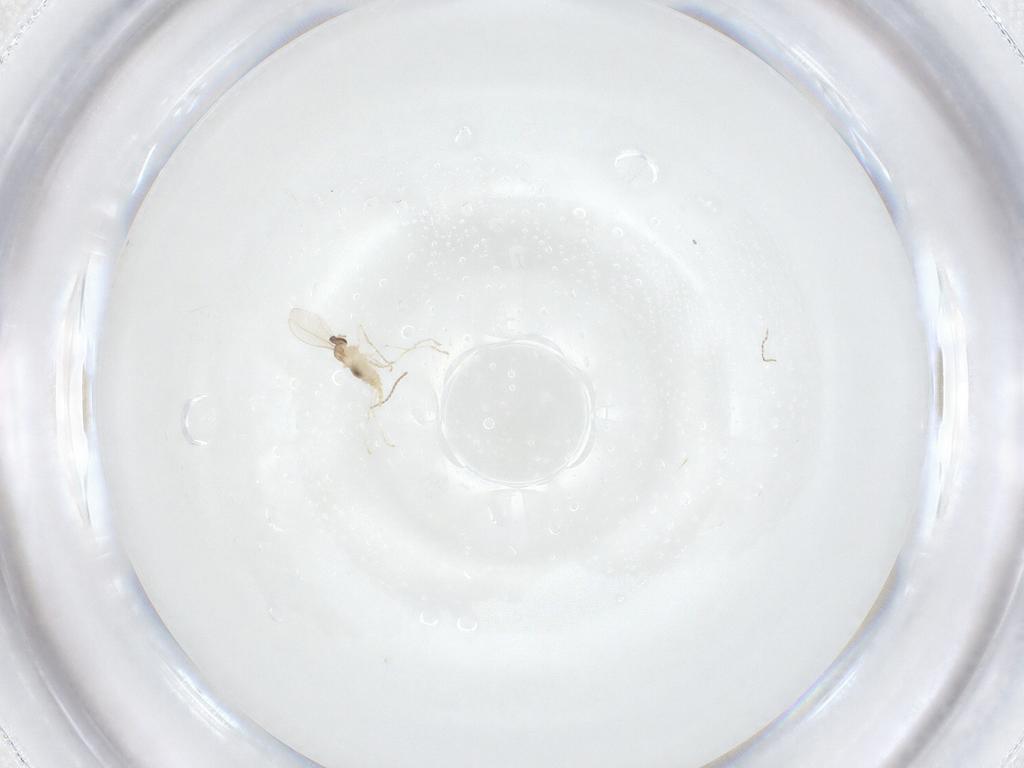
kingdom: Animalia
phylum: Arthropoda
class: Insecta
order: Diptera
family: Cecidomyiidae
